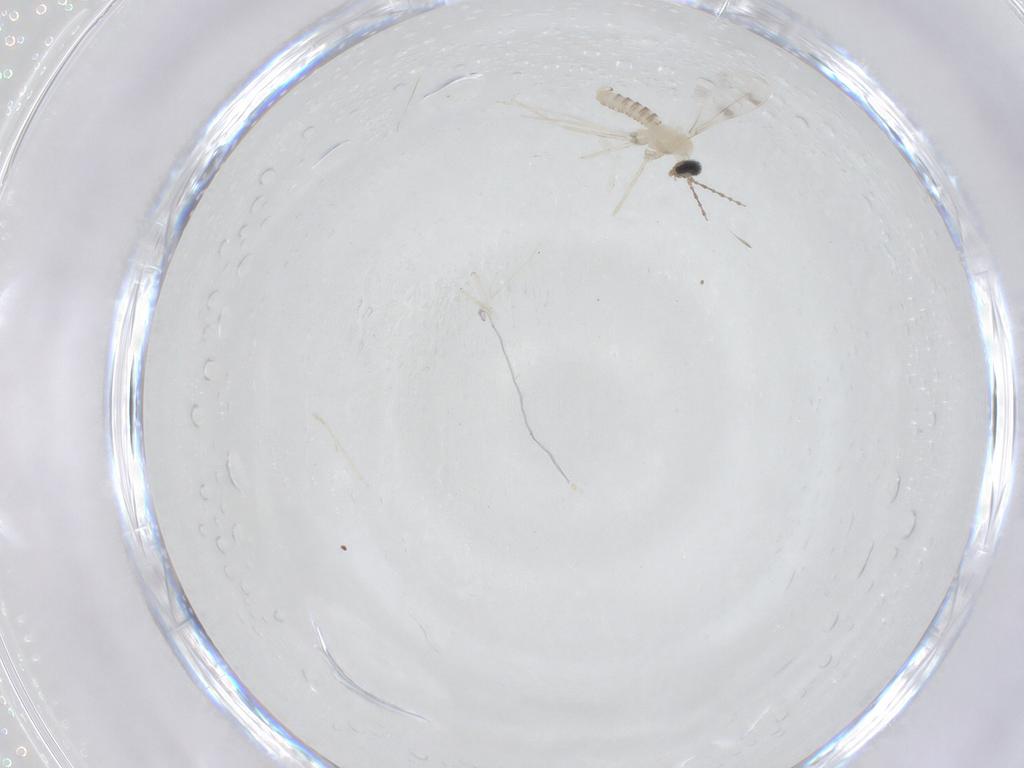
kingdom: Animalia
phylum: Arthropoda
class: Insecta
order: Diptera
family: Cecidomyiidae
